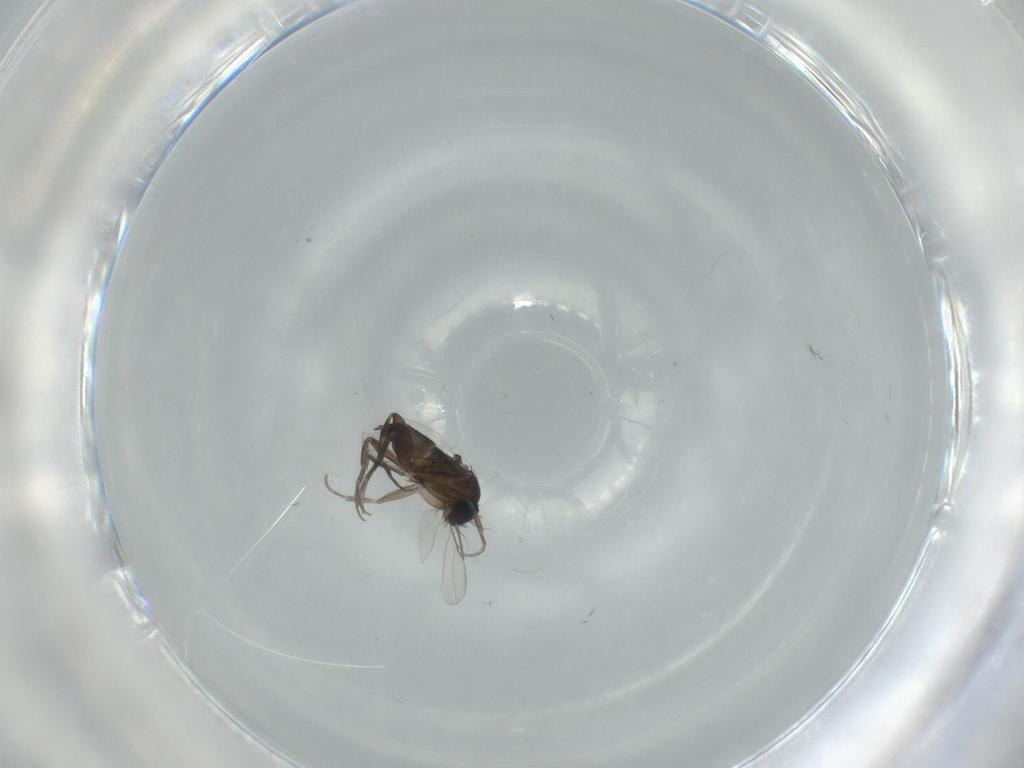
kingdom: Animalia
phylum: Arthropoda
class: Insecta
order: Diptera
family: Phoridae
